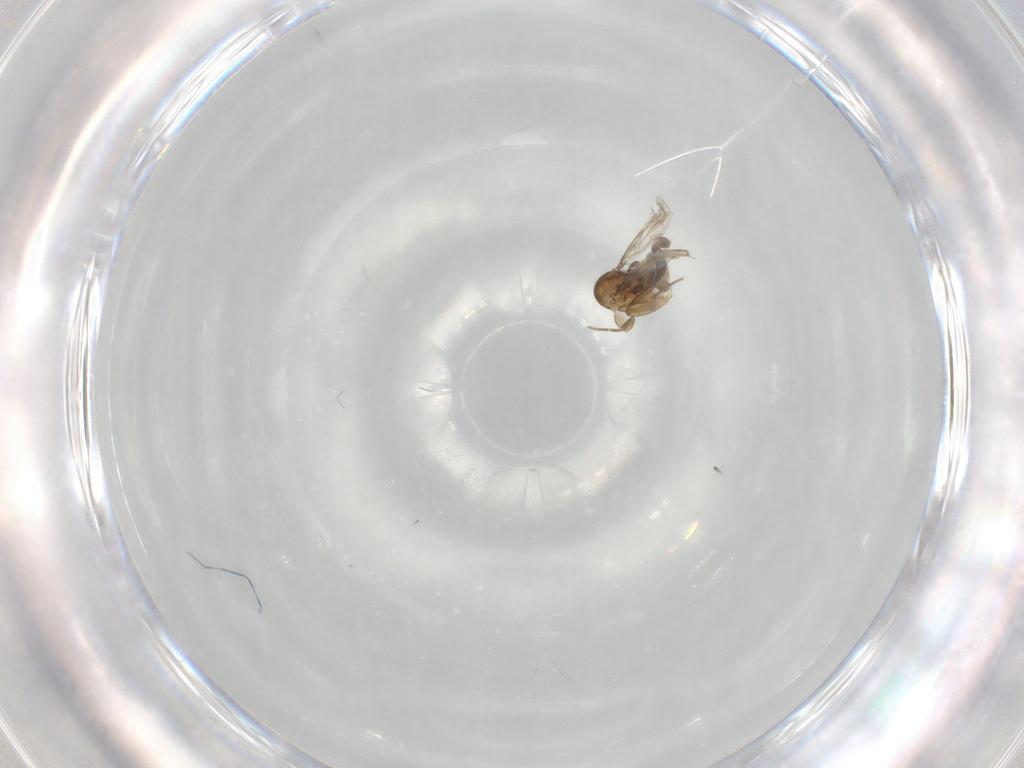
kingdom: Animalia
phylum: Arthropoda
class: Insecta
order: Diptera
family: Phoridae
